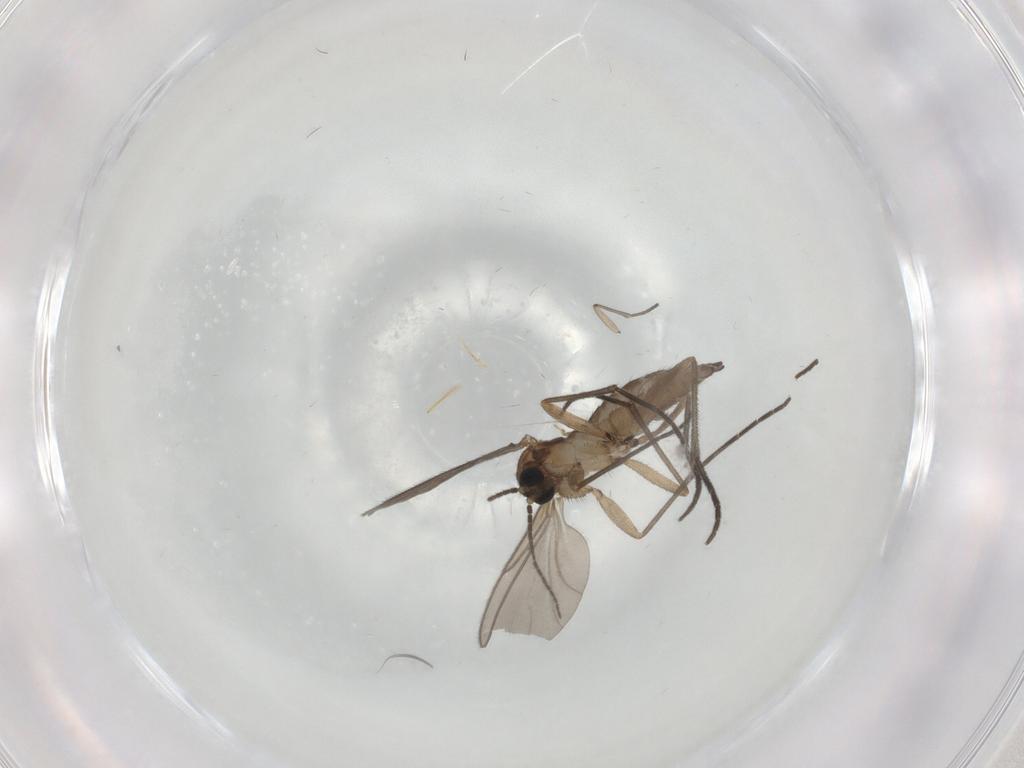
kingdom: Animalia
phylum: Arthropoda
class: Insecta
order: Diptera
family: Sciaridae
